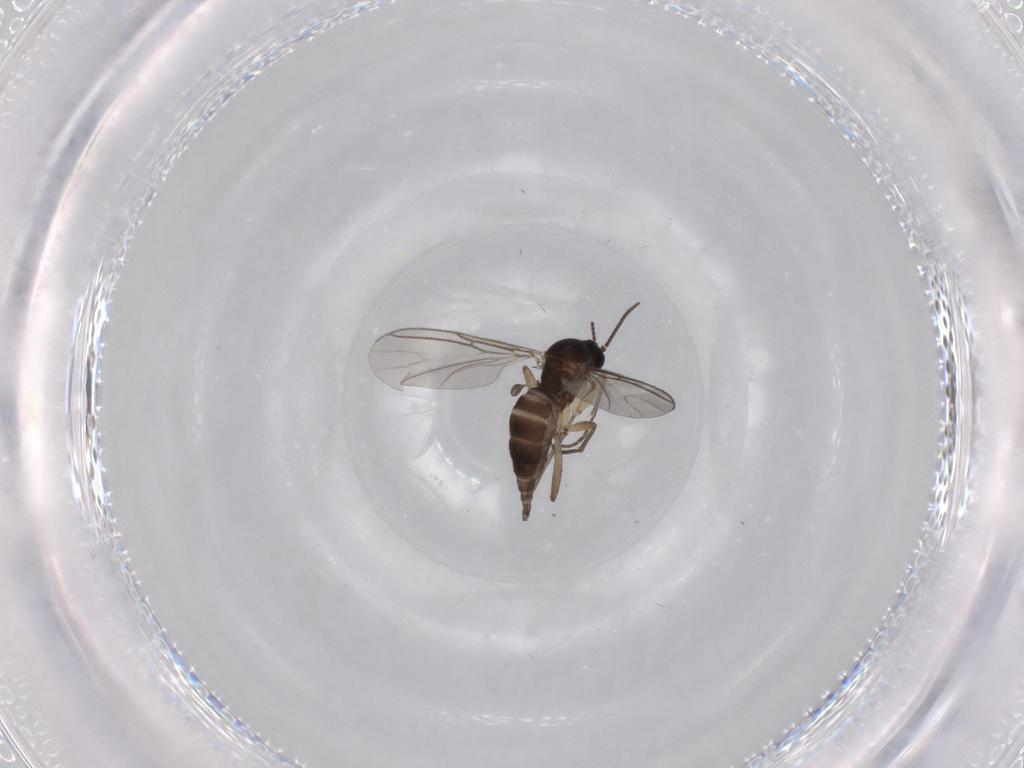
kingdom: Animalia
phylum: Arthropoda
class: Insecta
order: Diptera
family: Sciaridae
